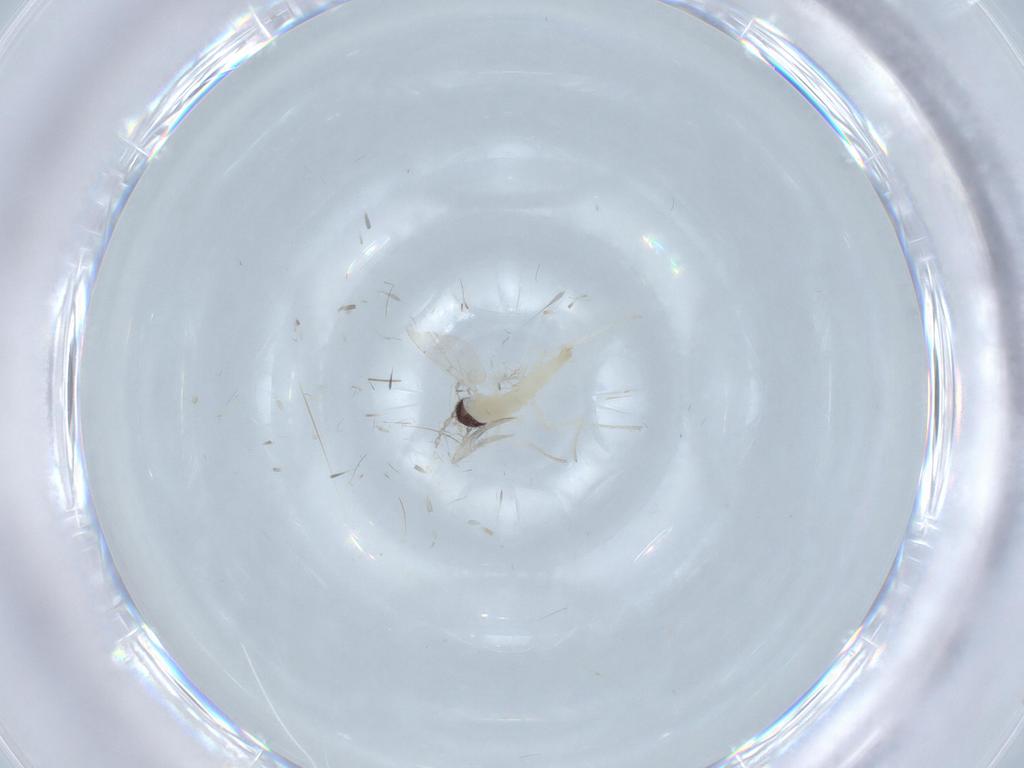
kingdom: Animalia
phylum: Arthropoda
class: Insecta
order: Diptera
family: Cecidomyiidae
